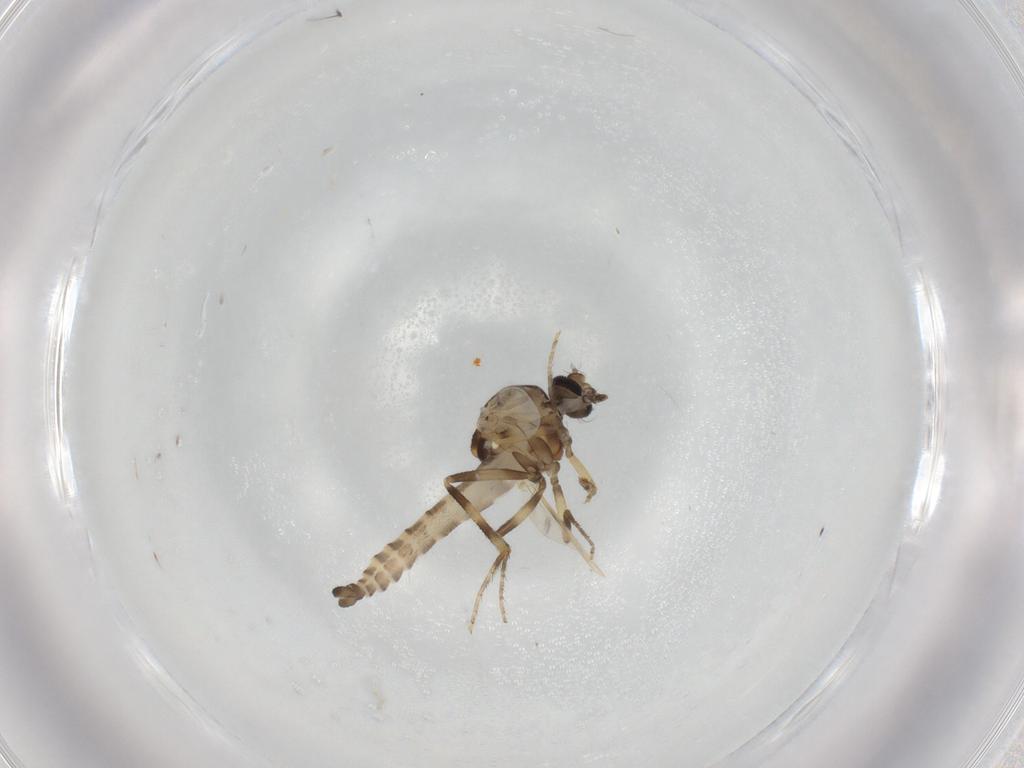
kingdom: Animalia
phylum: Arthropoda
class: Insecta
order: Diptera
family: Ceratopogonidae
